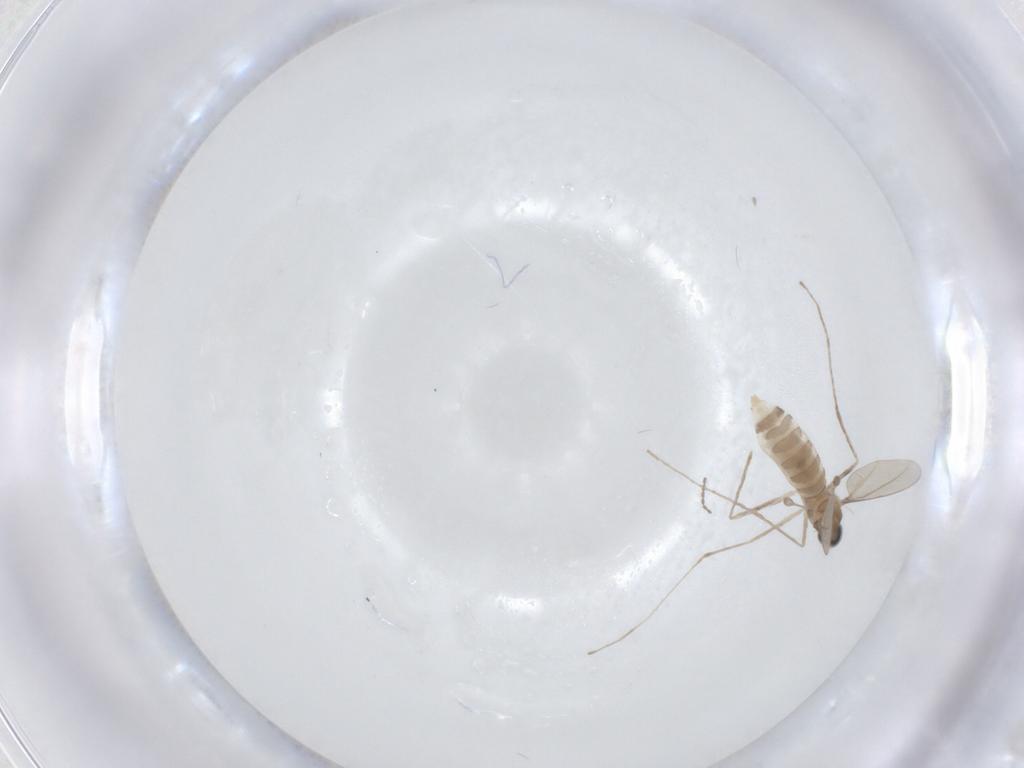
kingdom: Animalia
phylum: Arthropoda
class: Insecta
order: Diptera
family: Cecidomyiidae
